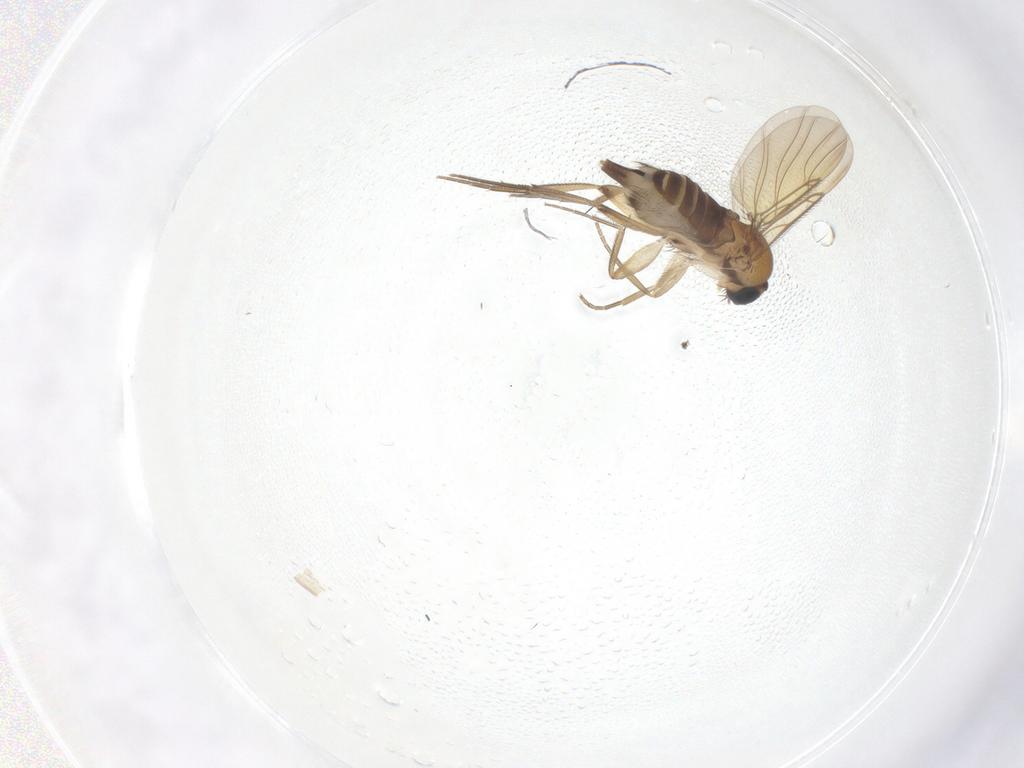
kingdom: Animalia
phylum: Arthropoda
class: Insecta
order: Diptera
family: Phoridae
